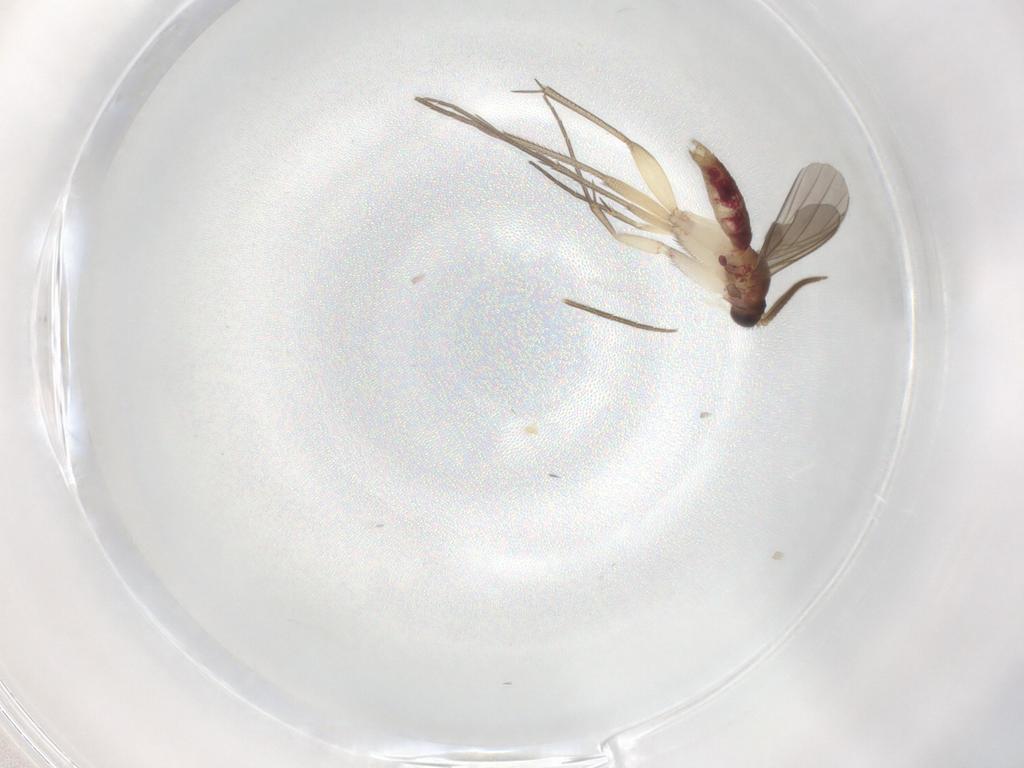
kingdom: Animalia
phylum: Arthropoda
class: Insecta
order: Diptera
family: Mycetophilidae
